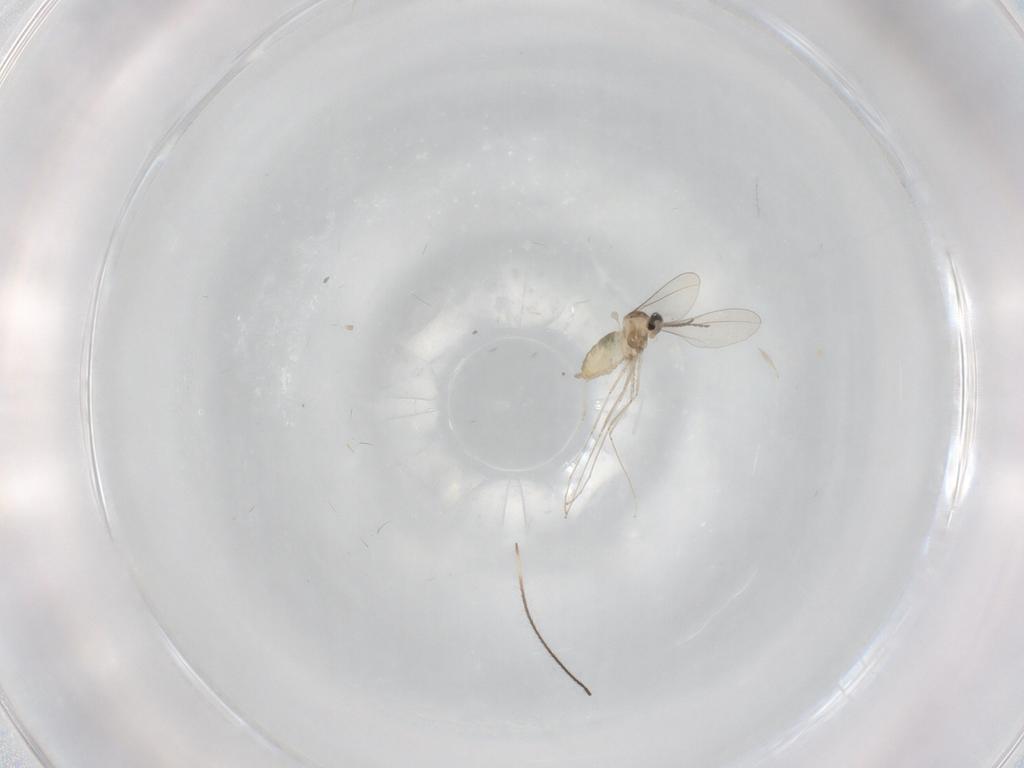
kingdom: Animalia
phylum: Arthropoda
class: Insecta
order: Diptera
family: Cecidomyiidae
